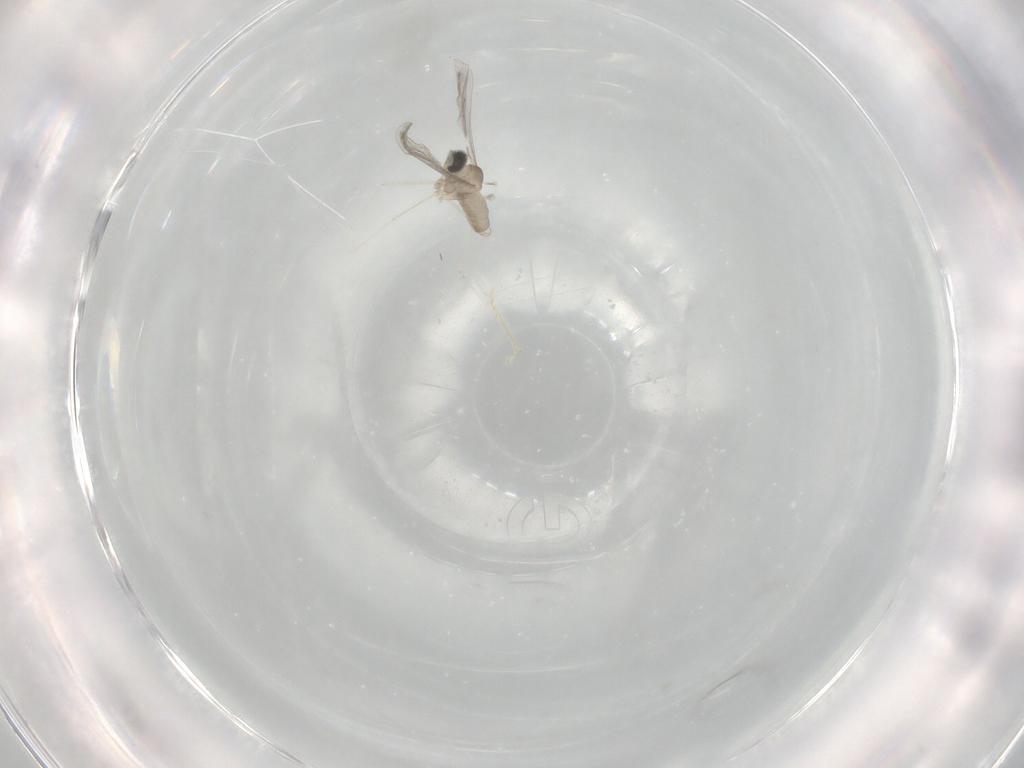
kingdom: Animalia
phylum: Arthropoda
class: Insecta
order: Diptera
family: Cecidomyiidae
